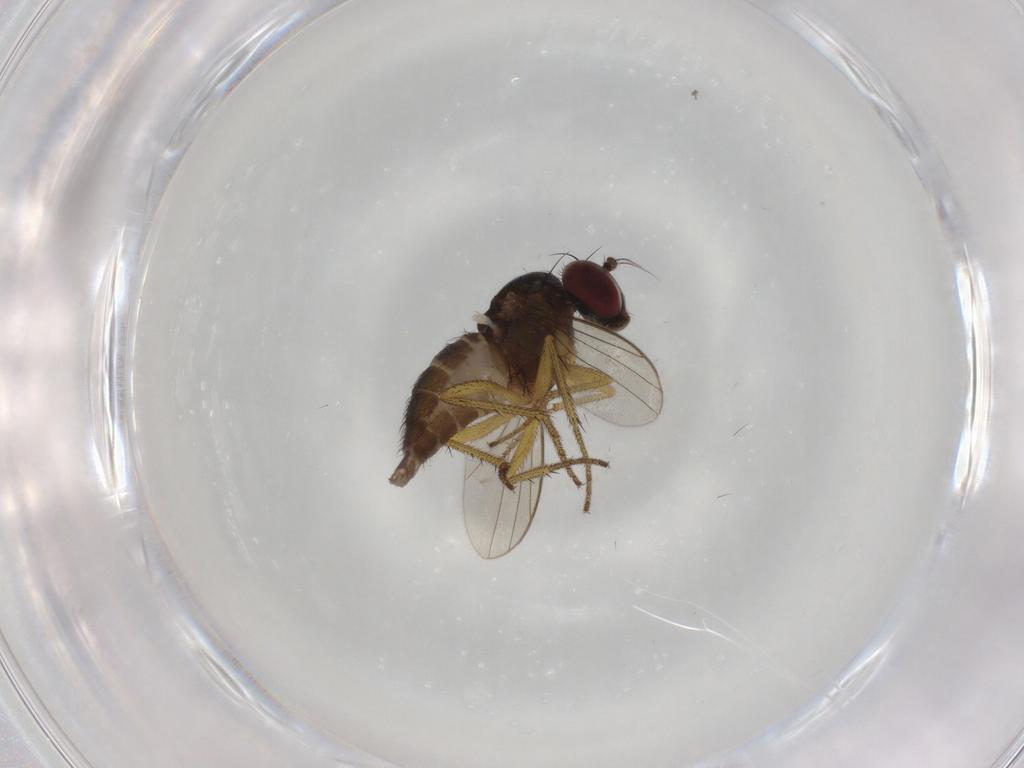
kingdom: Animalia
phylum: Arthropoda
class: Insecta
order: Diptera
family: Dolichopodidae
